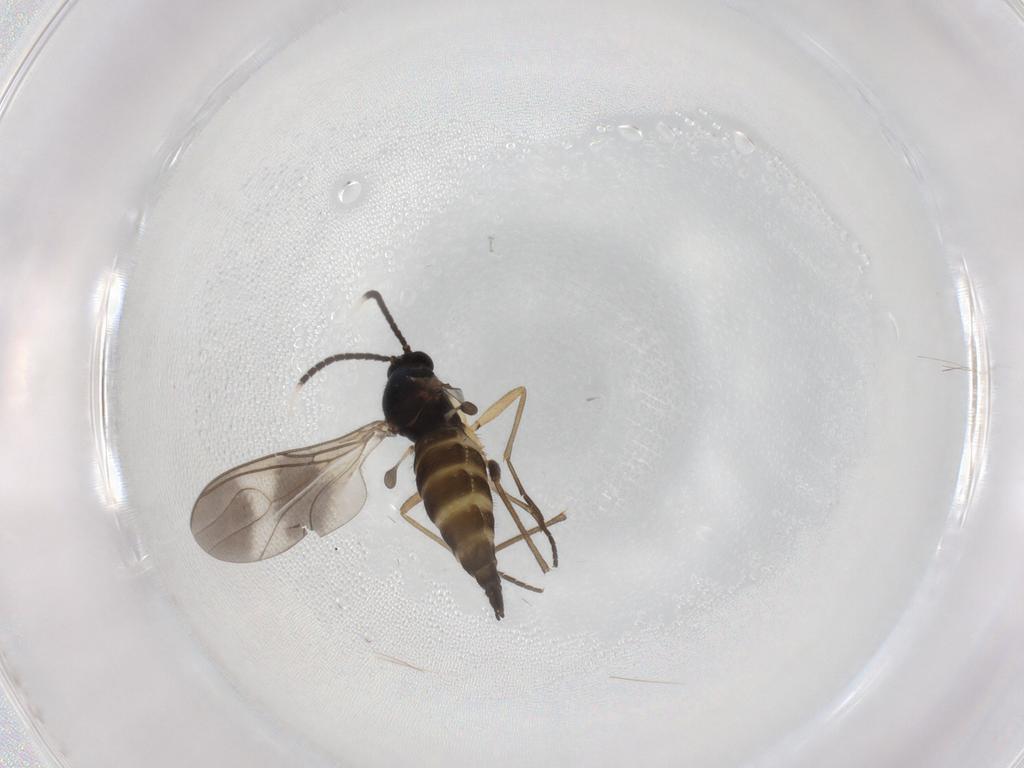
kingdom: Animalia
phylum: Arthropoda
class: Insecta
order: Diptera
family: Sciaridae
